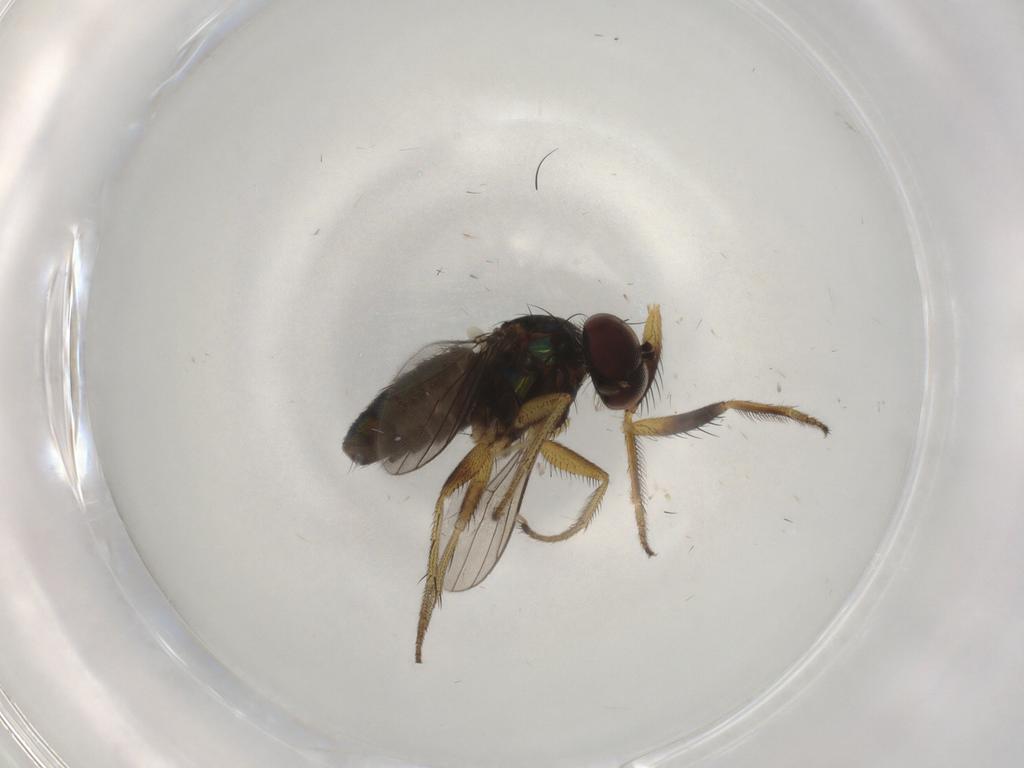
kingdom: Animalia
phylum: Arthropoda
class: Insecta
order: Diptera
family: Dolichopodidae
